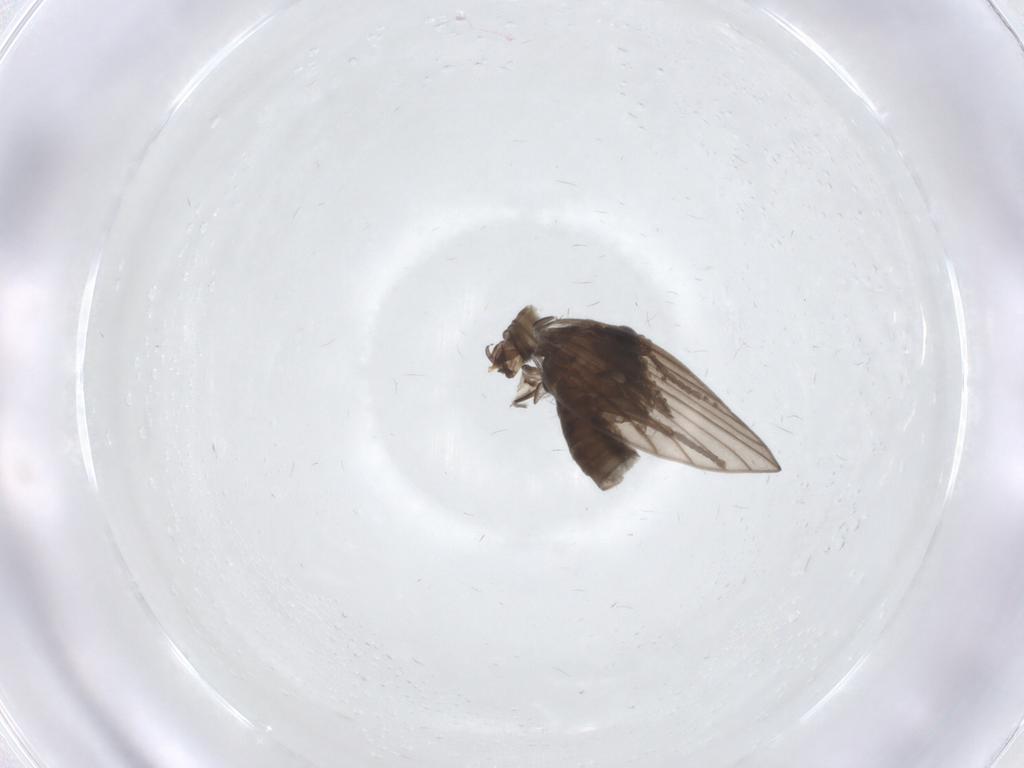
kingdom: Animalia
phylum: Arthropoda
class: Insecta
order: Diptera
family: Psychodidae
